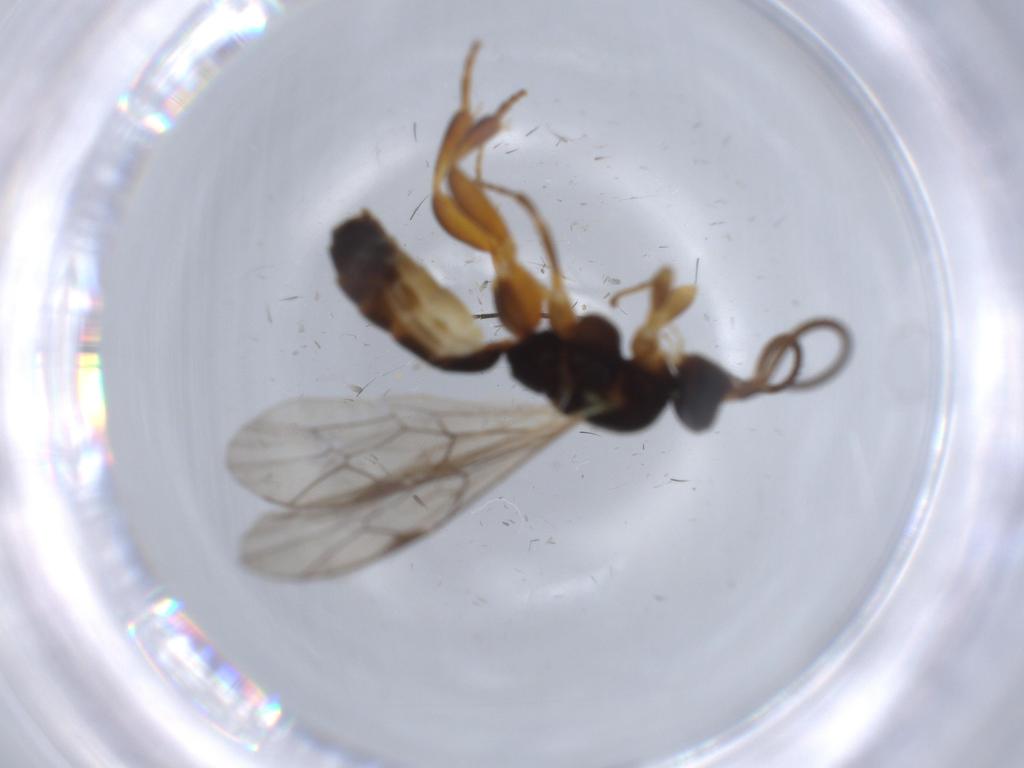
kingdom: Animalia
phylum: Arthropoda
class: Insecta
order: Hymenoptera
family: Ichneumonidae
